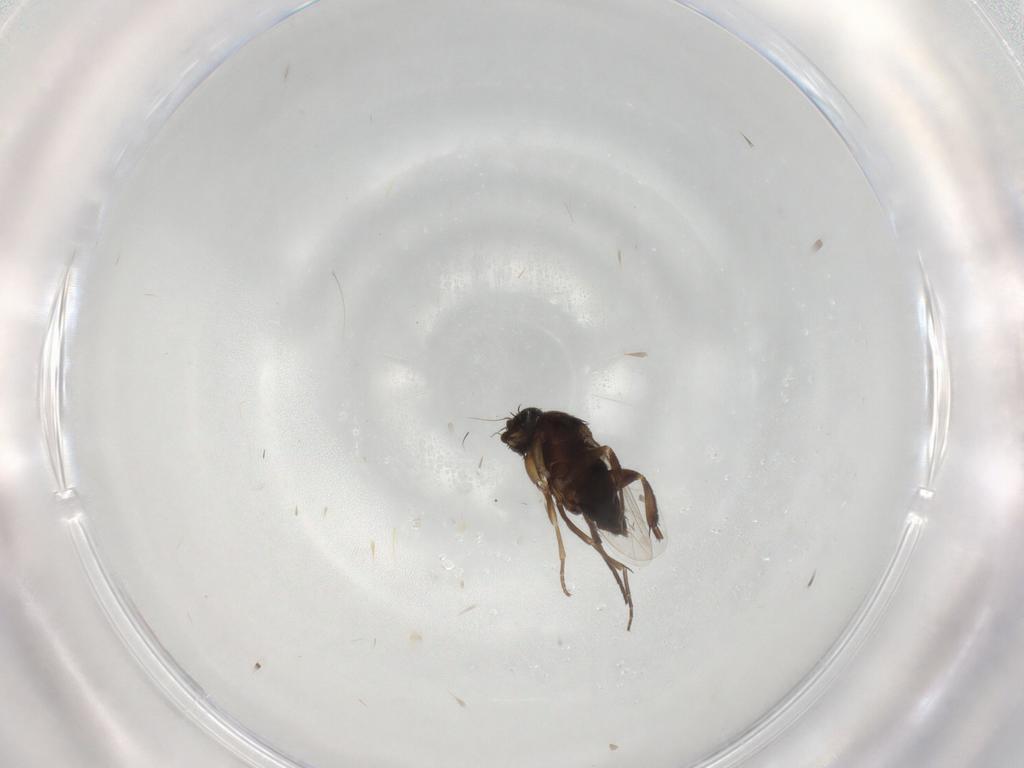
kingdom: Animalia
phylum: Arthropoda
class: Insecta
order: Diptera
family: Phoridae
